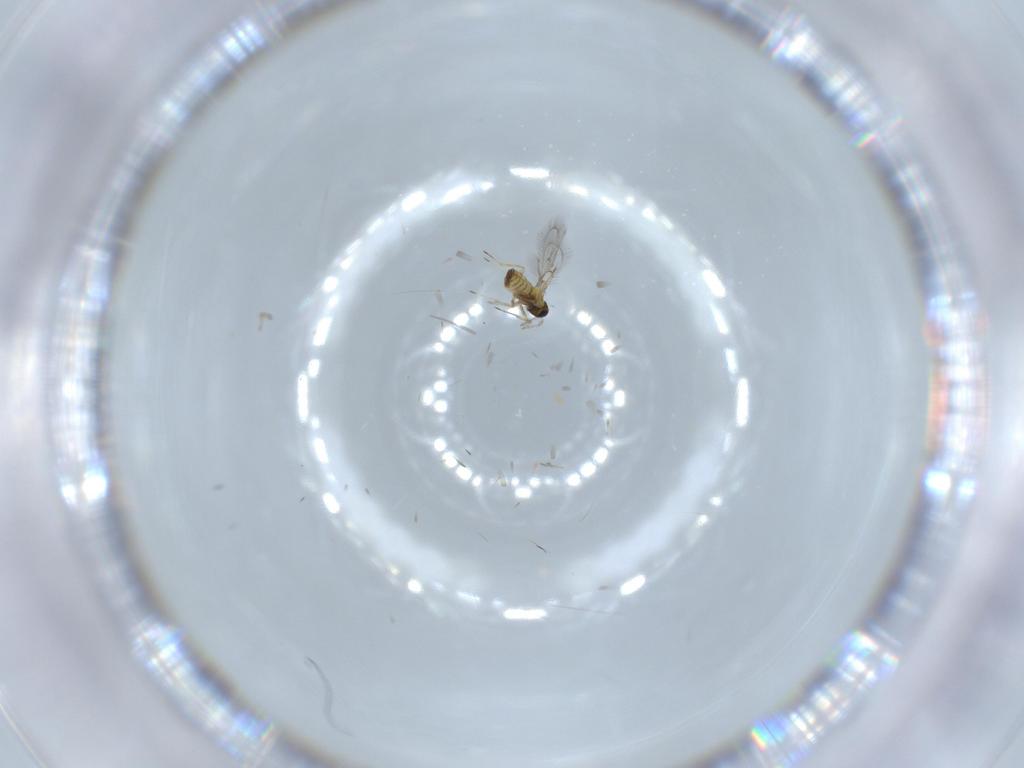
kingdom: Animalia
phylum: Arthropoda
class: Insecta
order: Hymenoptera
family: Trichogrammatidae
